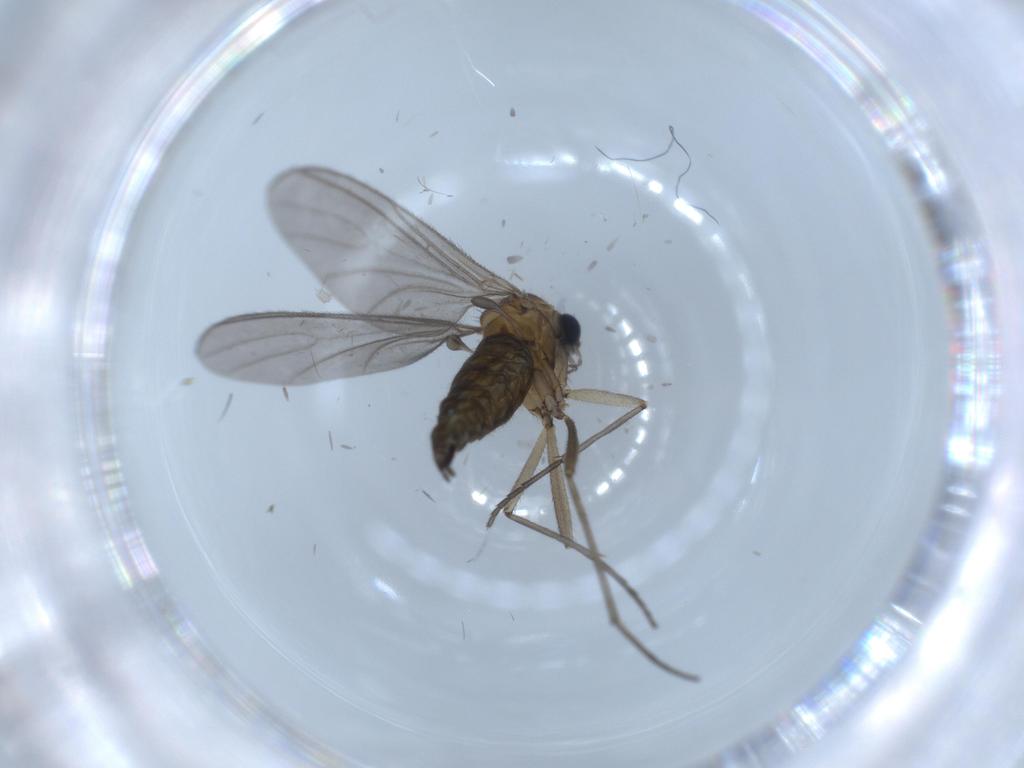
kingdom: Animalia
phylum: Arthropoda
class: Insecta
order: Diptera
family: Sciaridae
